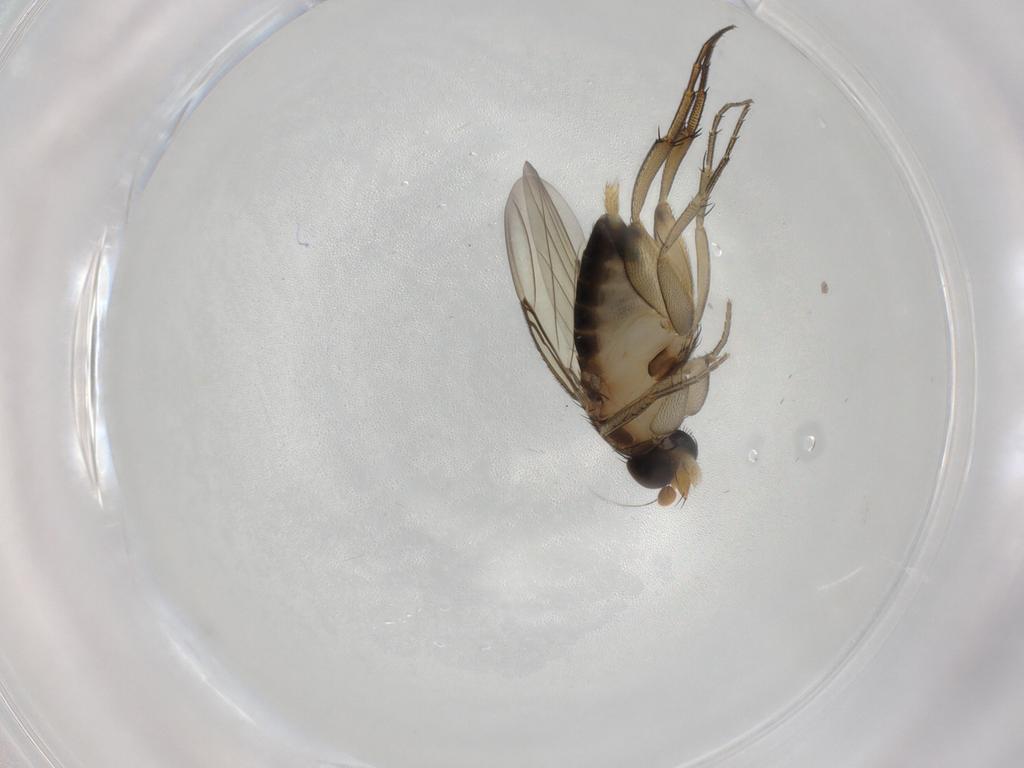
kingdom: Animalia
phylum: Arthropoda
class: Insecta
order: Diptera
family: Phoridae
